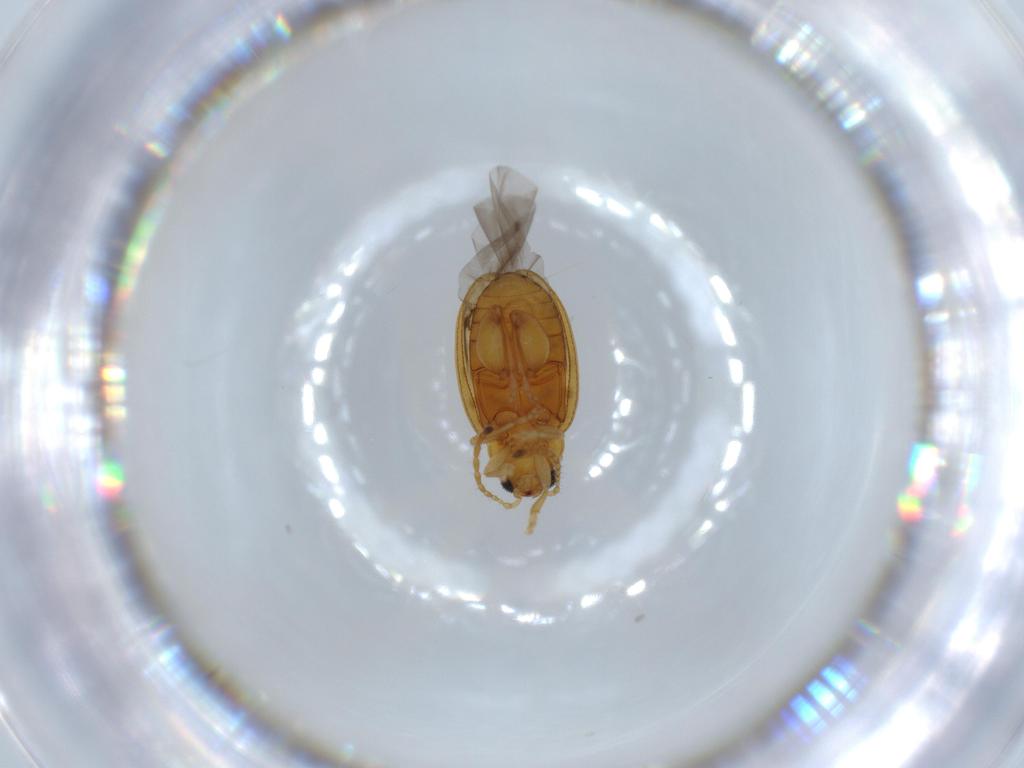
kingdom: Animalia
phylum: Arthropoda
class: Insecta
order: Coleoptera
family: Chrysomelidae
